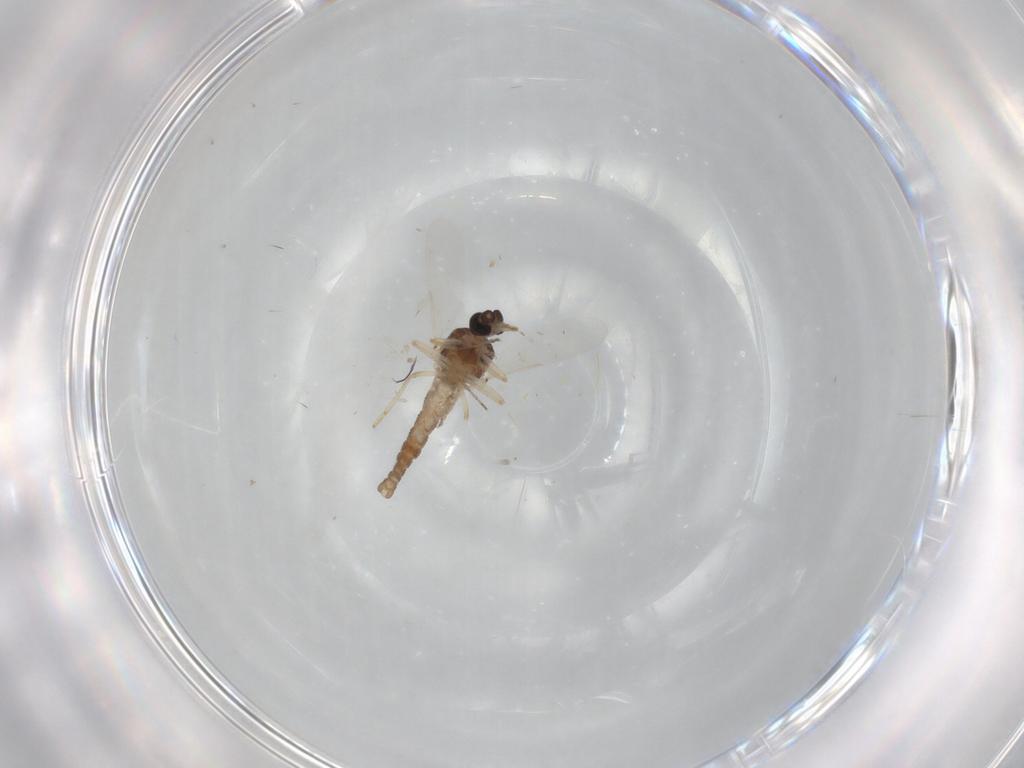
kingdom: Animalia
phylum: Arthropoda
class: Insecta
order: Diptera
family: Ceratopogonidae
